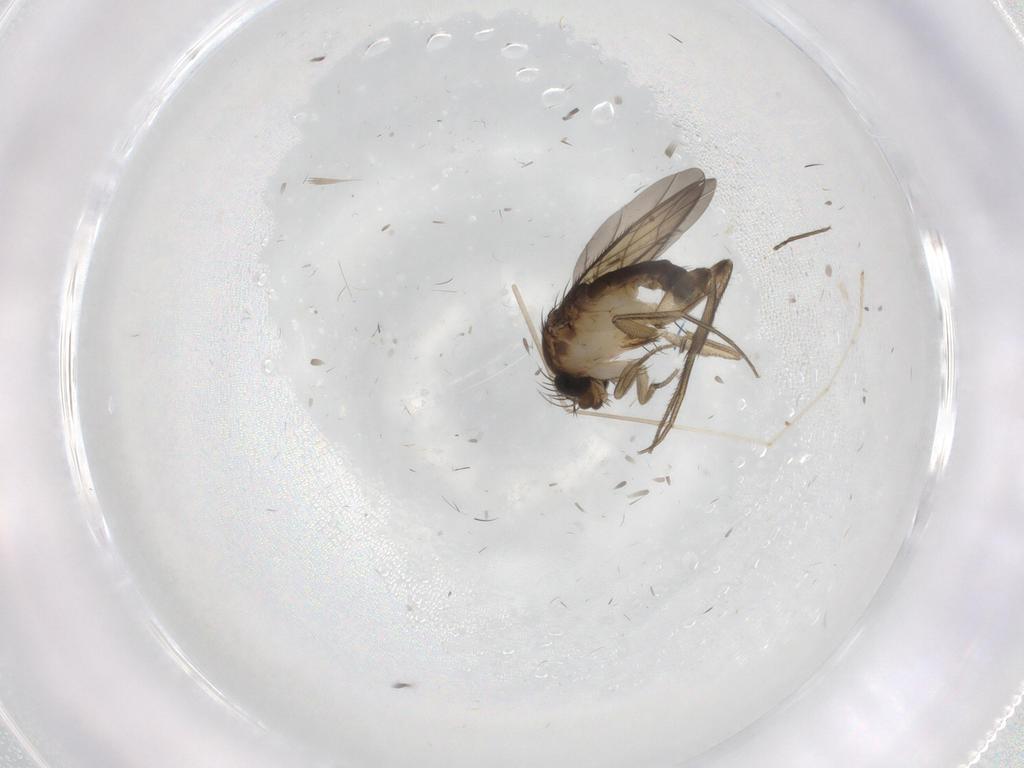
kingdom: Animalia
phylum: Arthropoda
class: Insecta
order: Diptera
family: Cecidomyiidae
